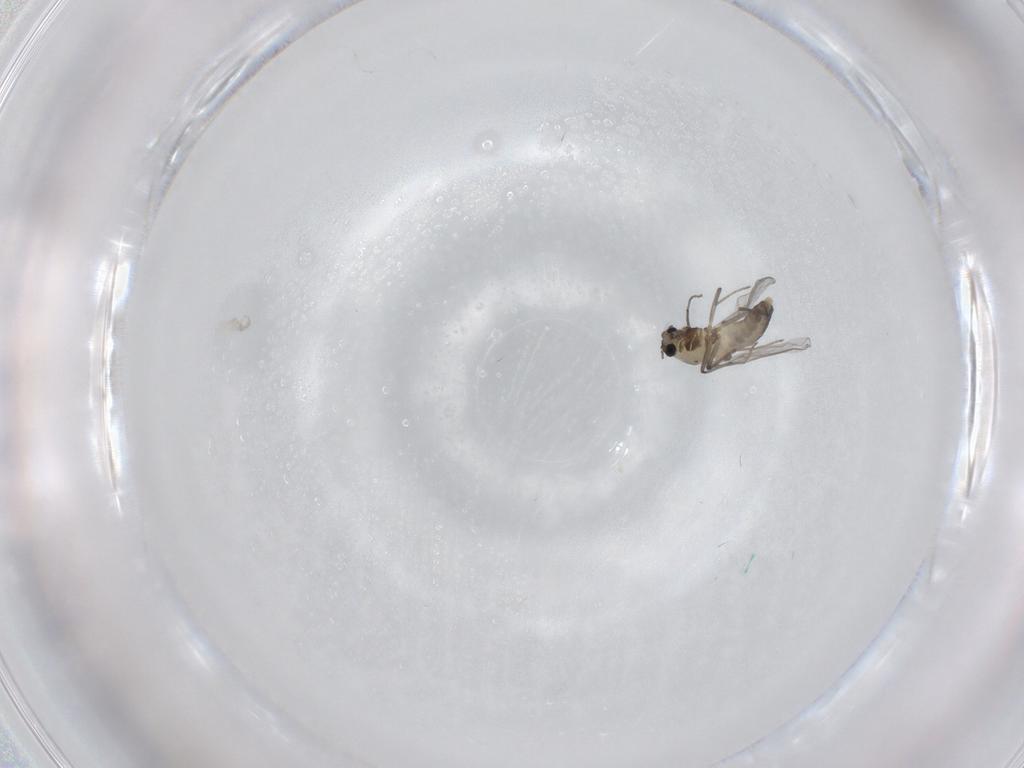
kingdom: Animalia
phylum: Arthropoda
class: Insecta
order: Diptera
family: Chironomidae
